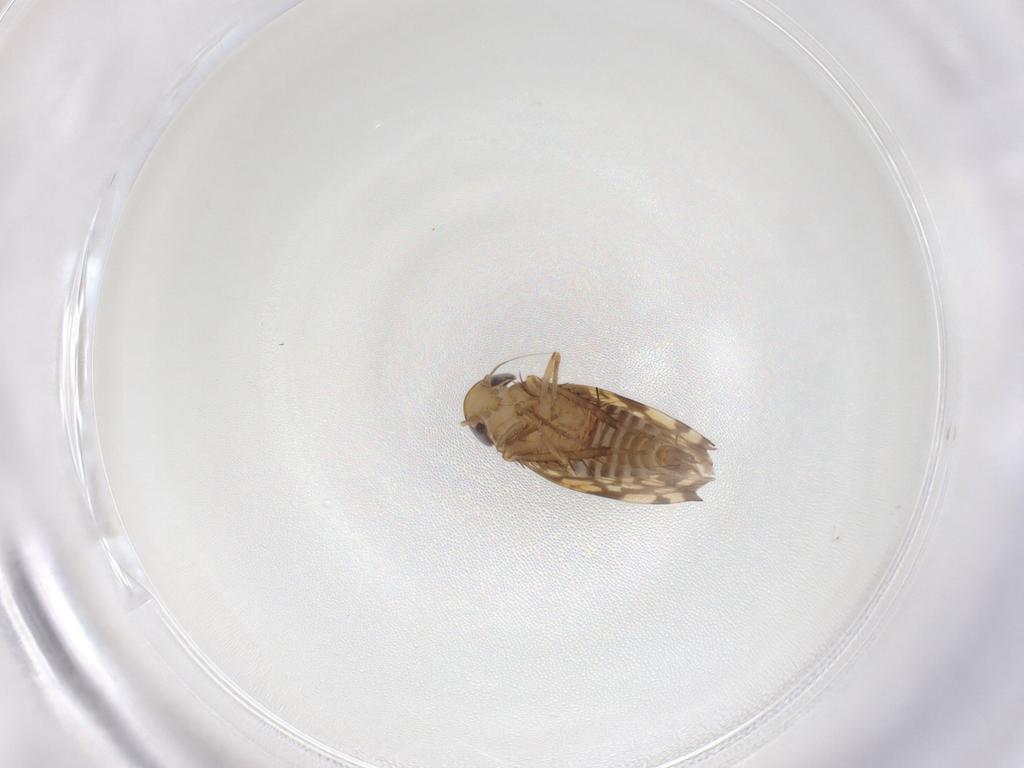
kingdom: Animalia
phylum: Arthropoda
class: Insecta
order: Hemiptera
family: Cicadellidae
